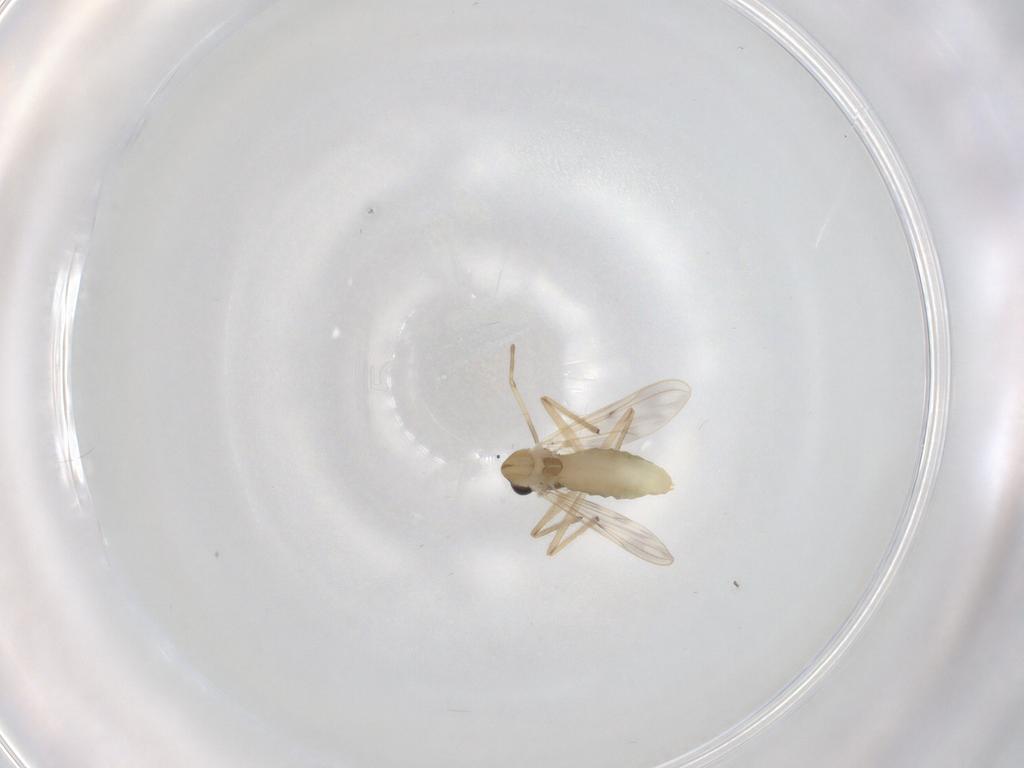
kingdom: Animalia
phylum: Arthropoda
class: Insecta
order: Diptera
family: Chironomidae
